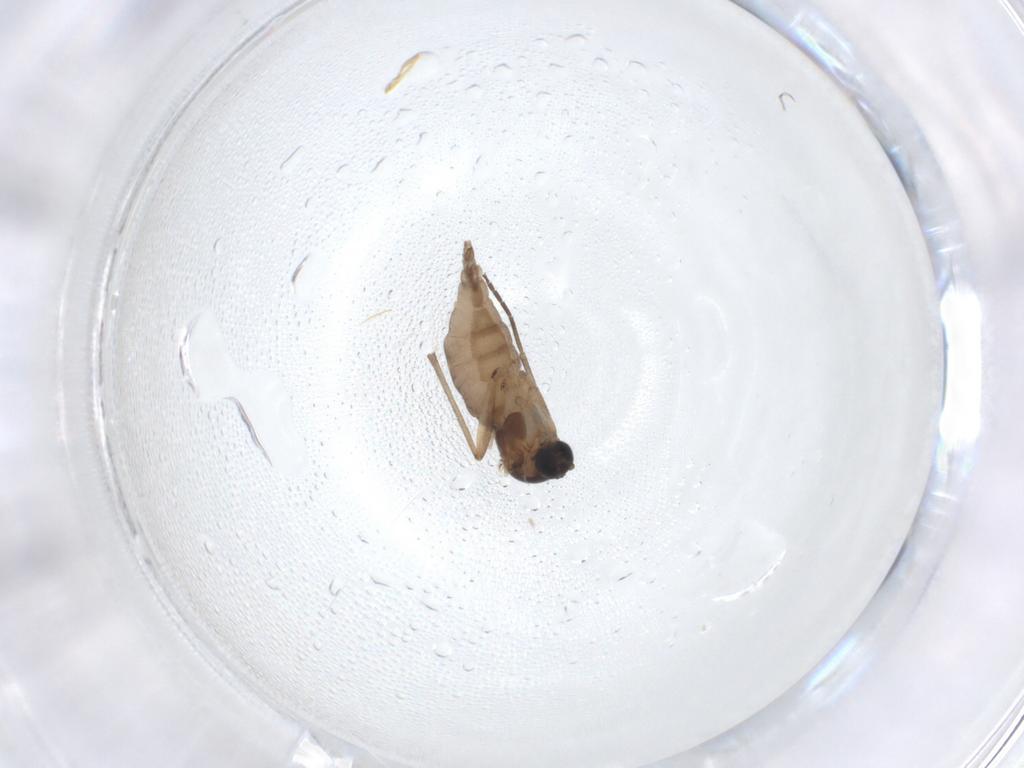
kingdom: Animalia
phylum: Arthropoda
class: Insecta
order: Diptera
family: Sciaridae
